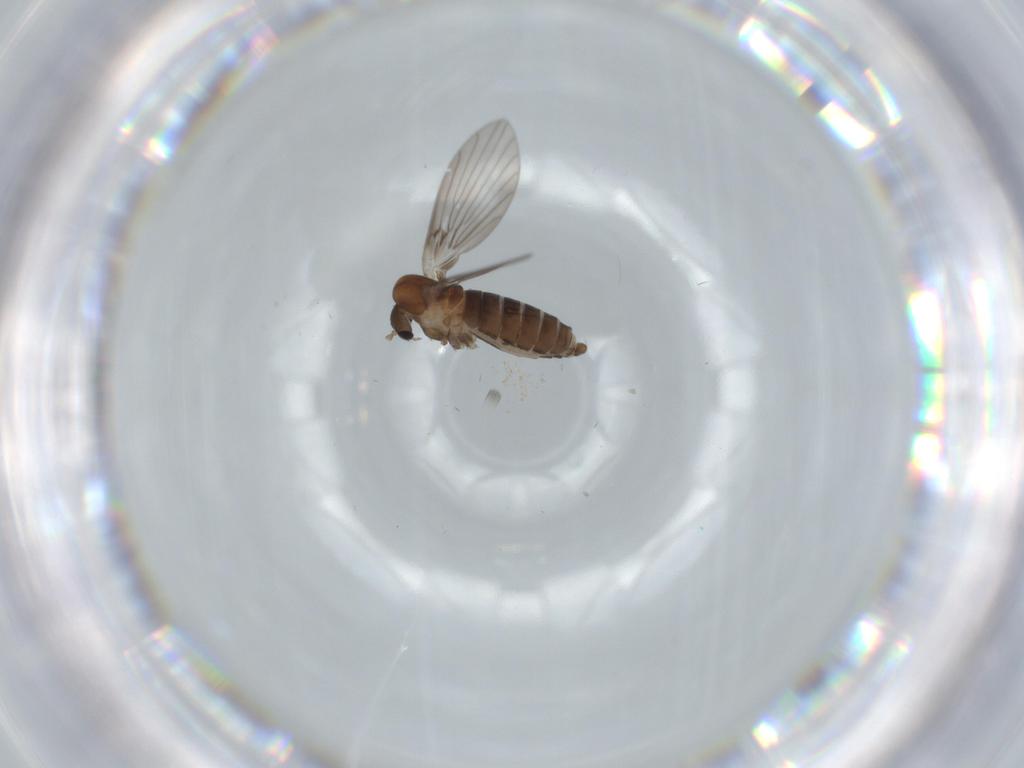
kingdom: Animalia
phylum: Arthropoda
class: Insecta
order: Diptera
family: Psychodidae
